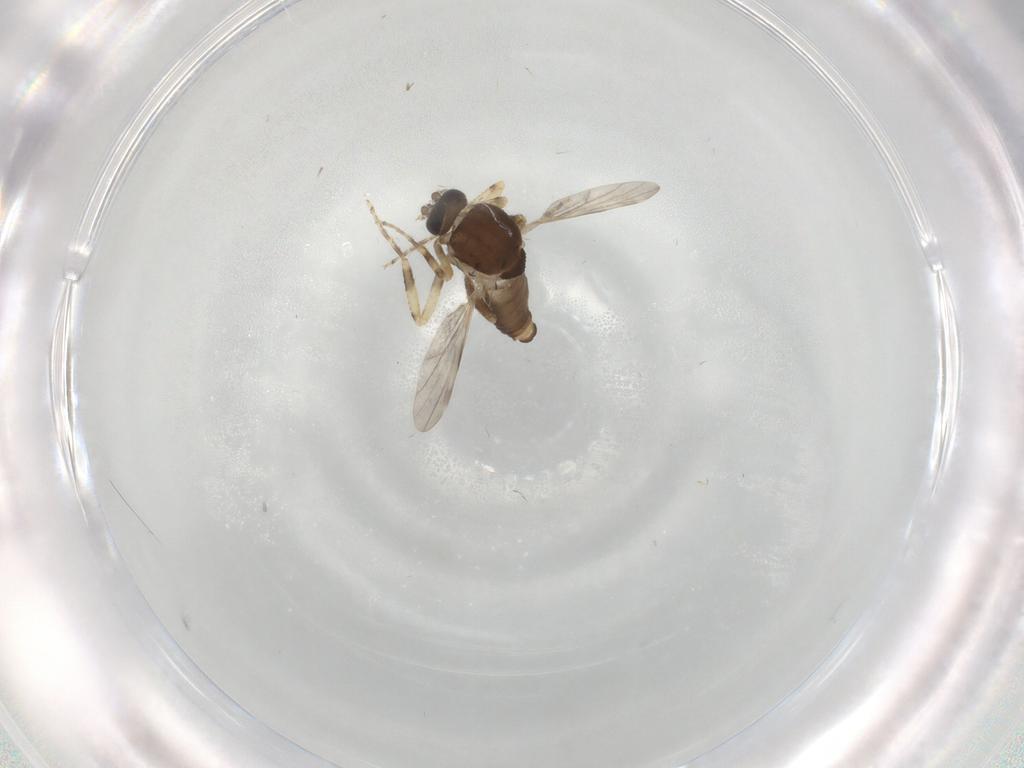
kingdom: Animalia
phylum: Arthropoda
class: Insecta
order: Diptera
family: Ceratopogonidae
